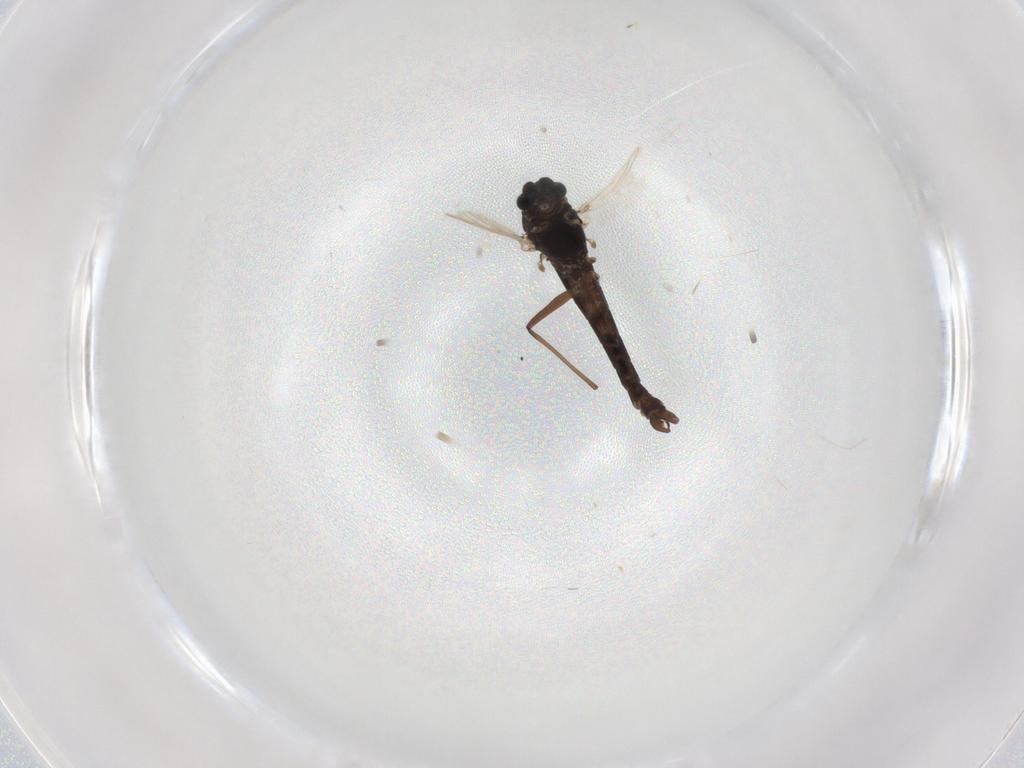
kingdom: Animalia
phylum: Arthropoda
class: Insecta
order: Diptera
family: Chironomidae
